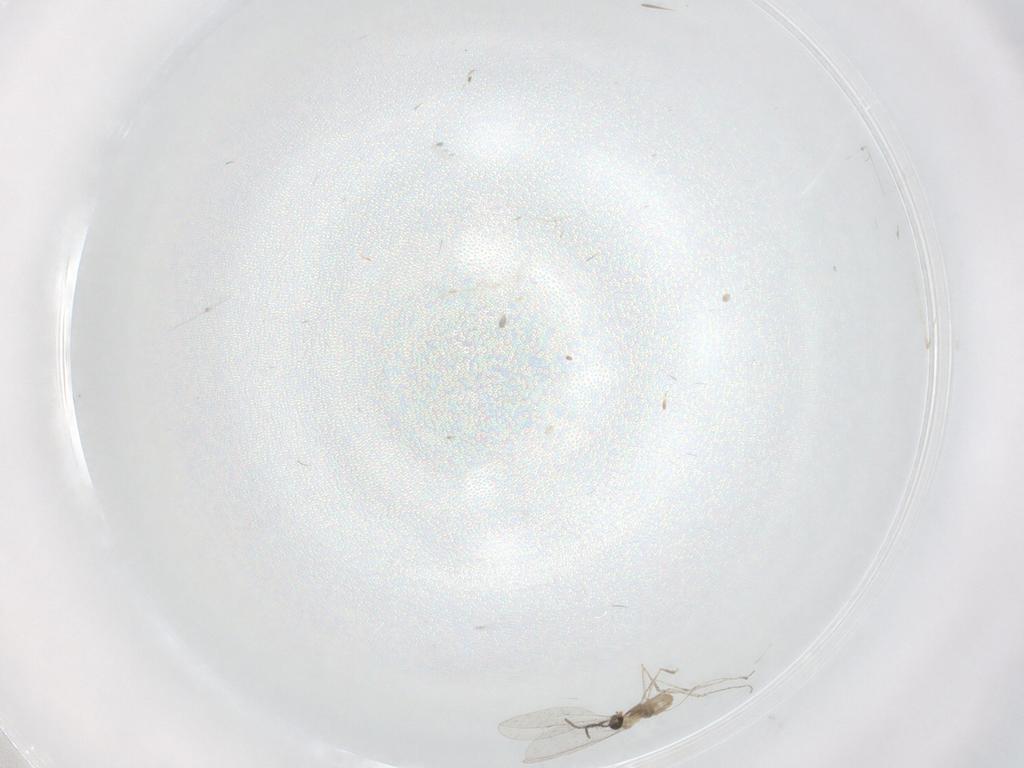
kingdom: Animalia
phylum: Arthropoda
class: Insecta
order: Diptera
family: Cecidomyiidae
